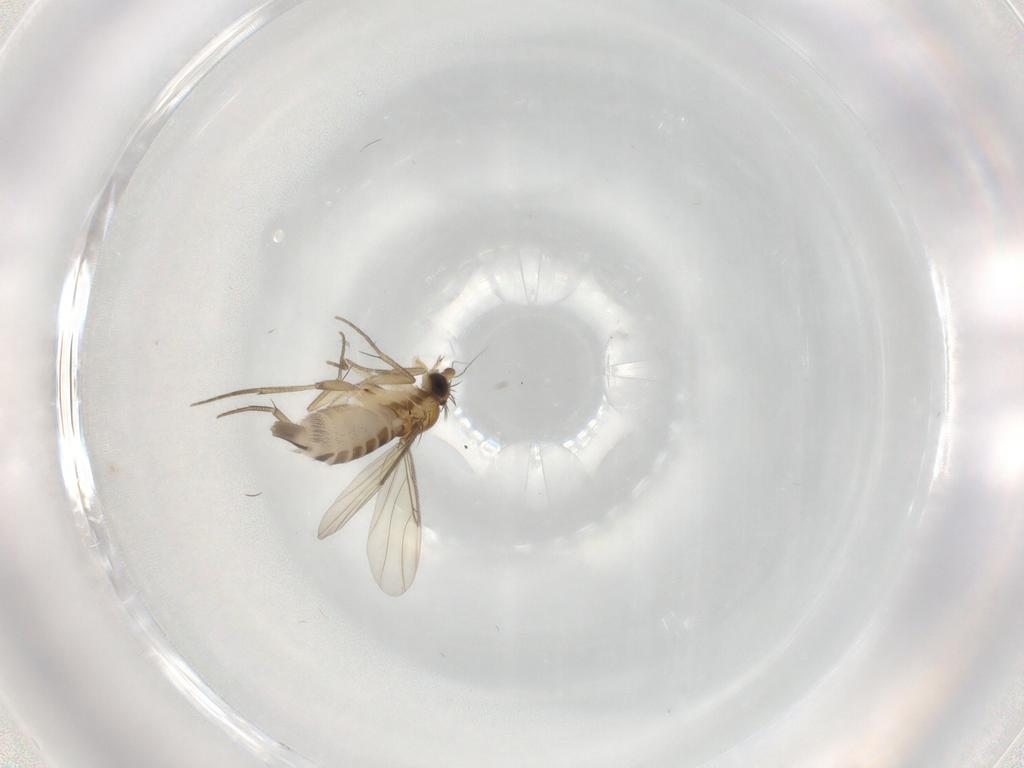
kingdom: Animalia
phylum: Arthropoda
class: Insecta
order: Diptera
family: Phoridae
